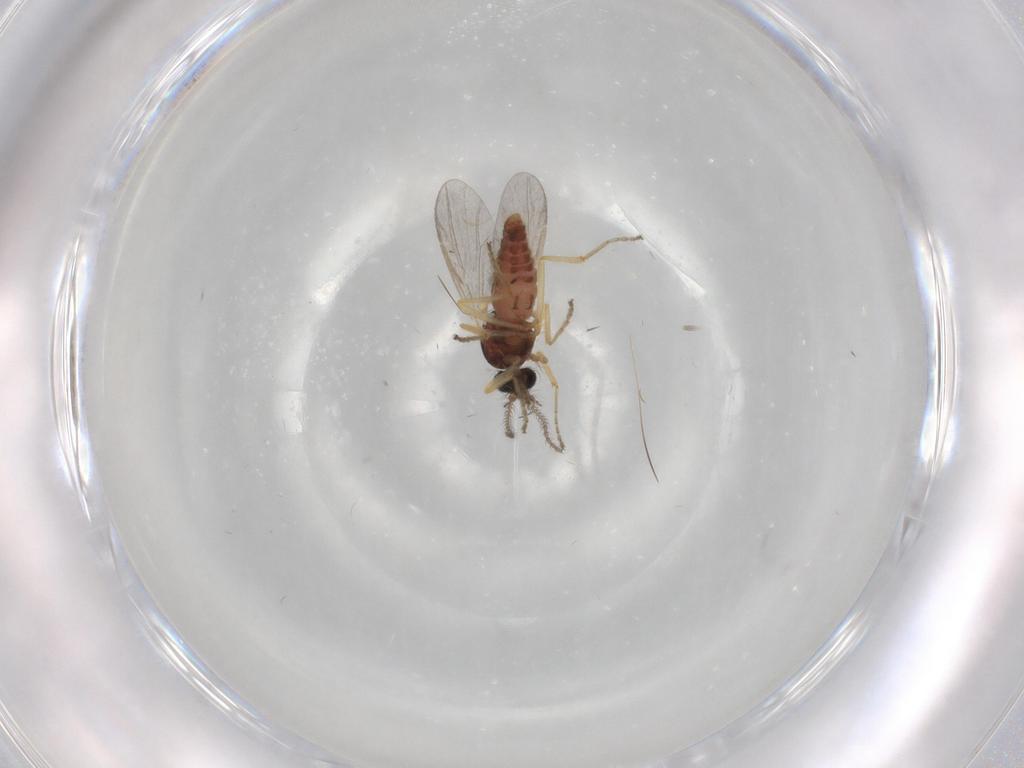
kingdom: Animalia
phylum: Arthropoda
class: Insecta
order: Diptera
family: Ceratopogonidae
